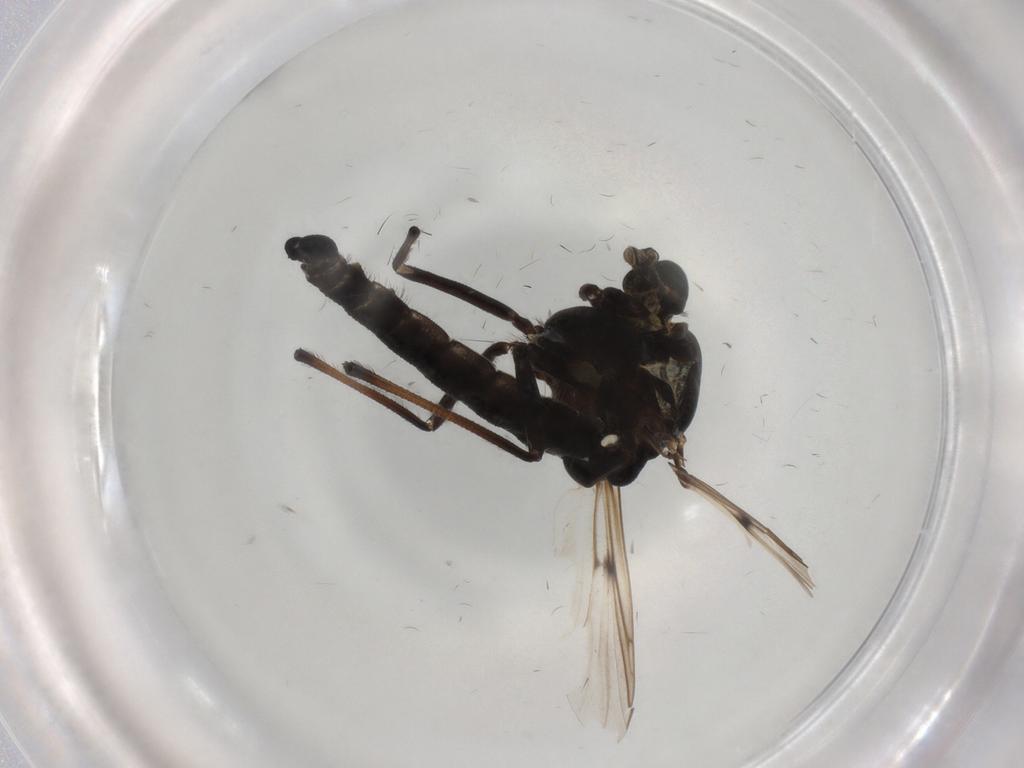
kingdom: Animalia
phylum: Arthropoda
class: Insecta
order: Diptera
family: Chironomidae
